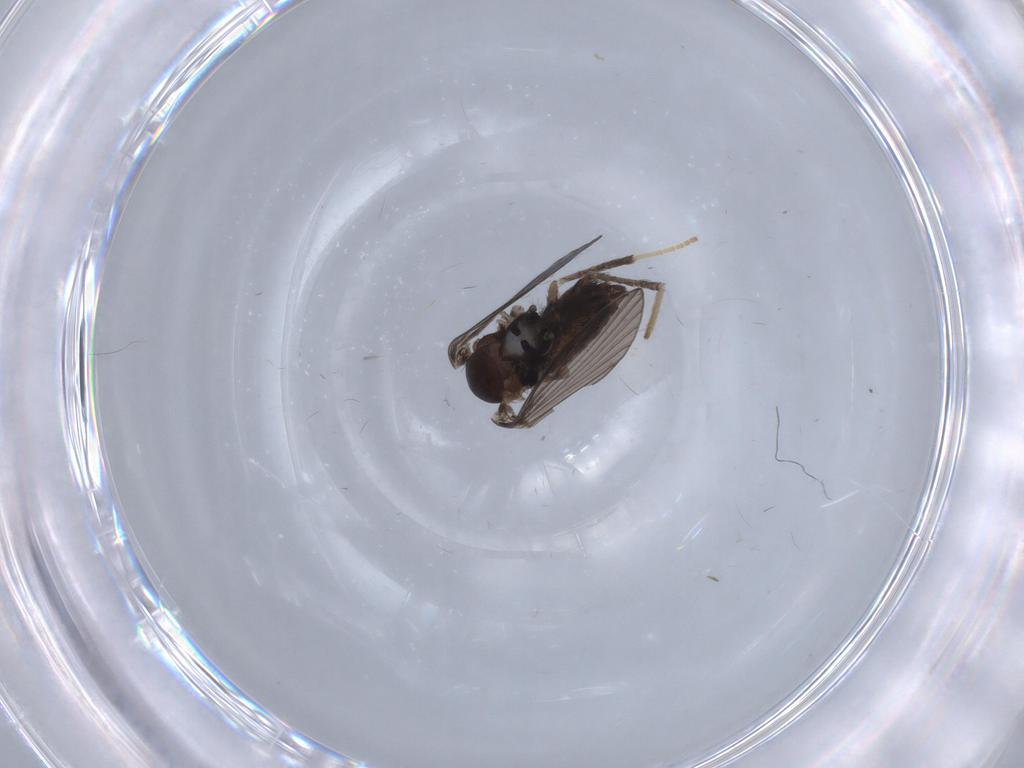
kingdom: Animalia
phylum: Arthropoda
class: Insecta
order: Diptera
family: Psychodidae
